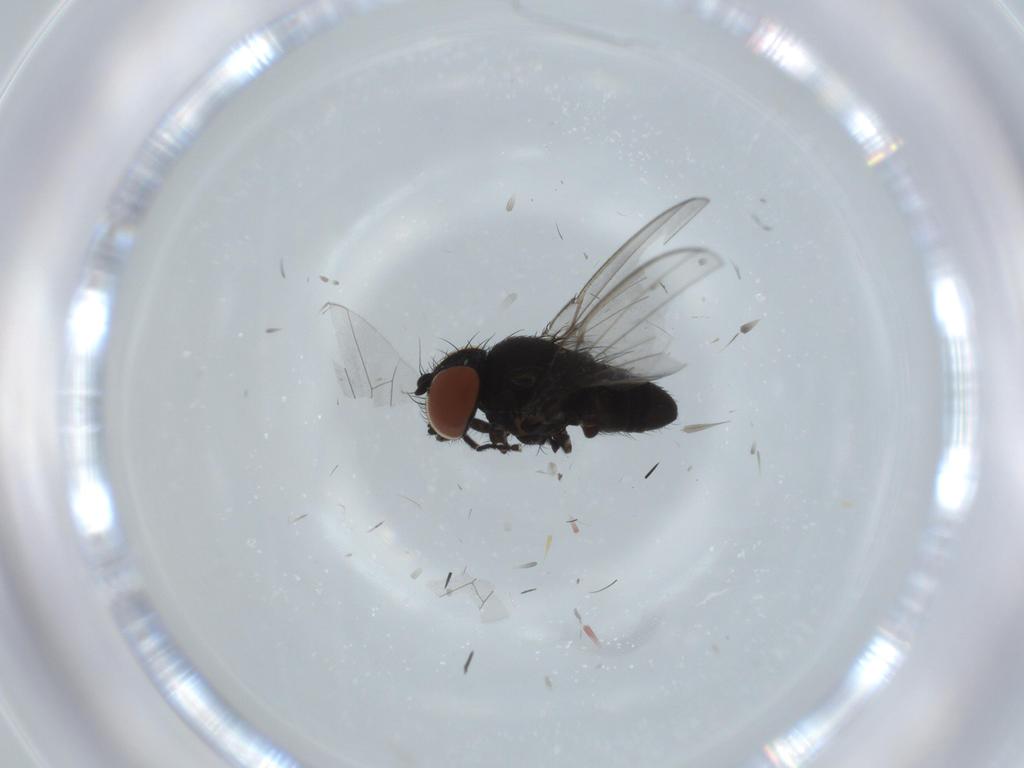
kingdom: Animalia
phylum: Arthropoda
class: Insecta
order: Diptera
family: Milichiidae
